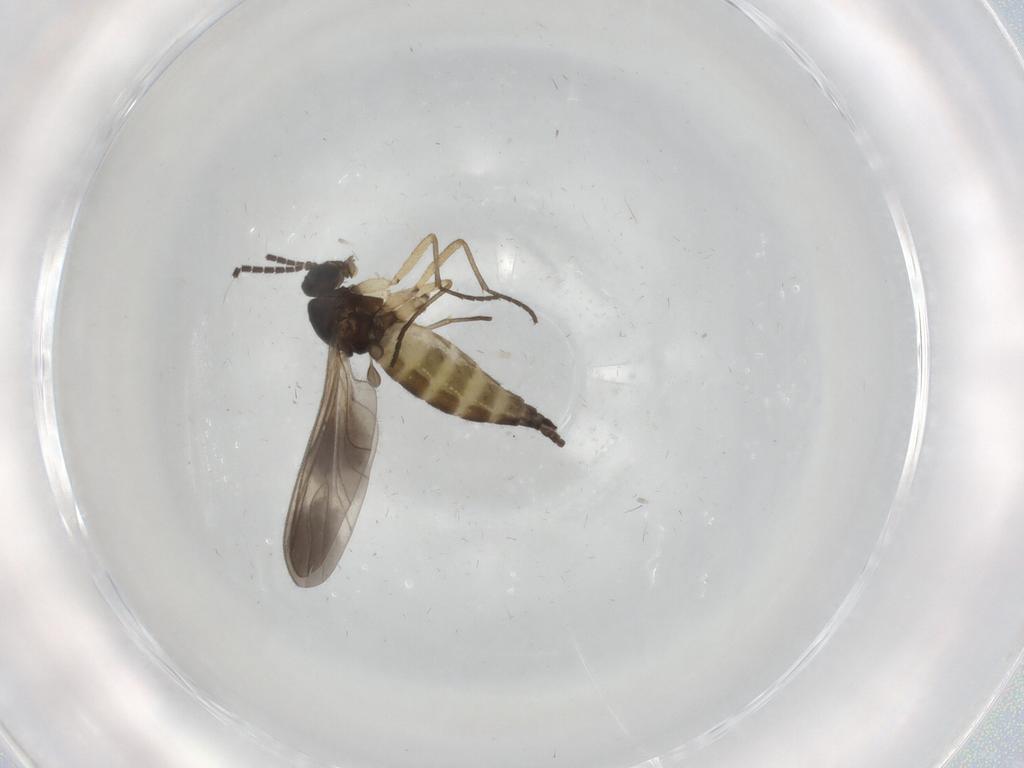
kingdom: Animalia
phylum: Arthropoda
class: Insecta
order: Diptera
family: Sciaridae
